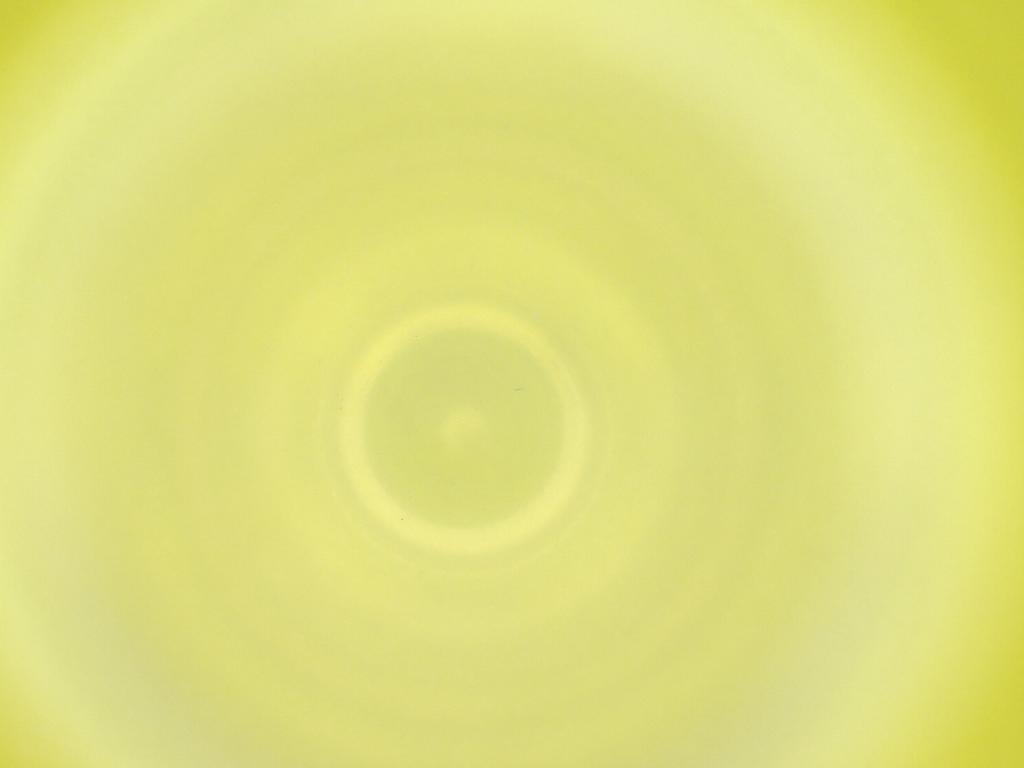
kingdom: Animalia
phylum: Arthropoda
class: Insecta
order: Diptera
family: Cecidomyiidae
